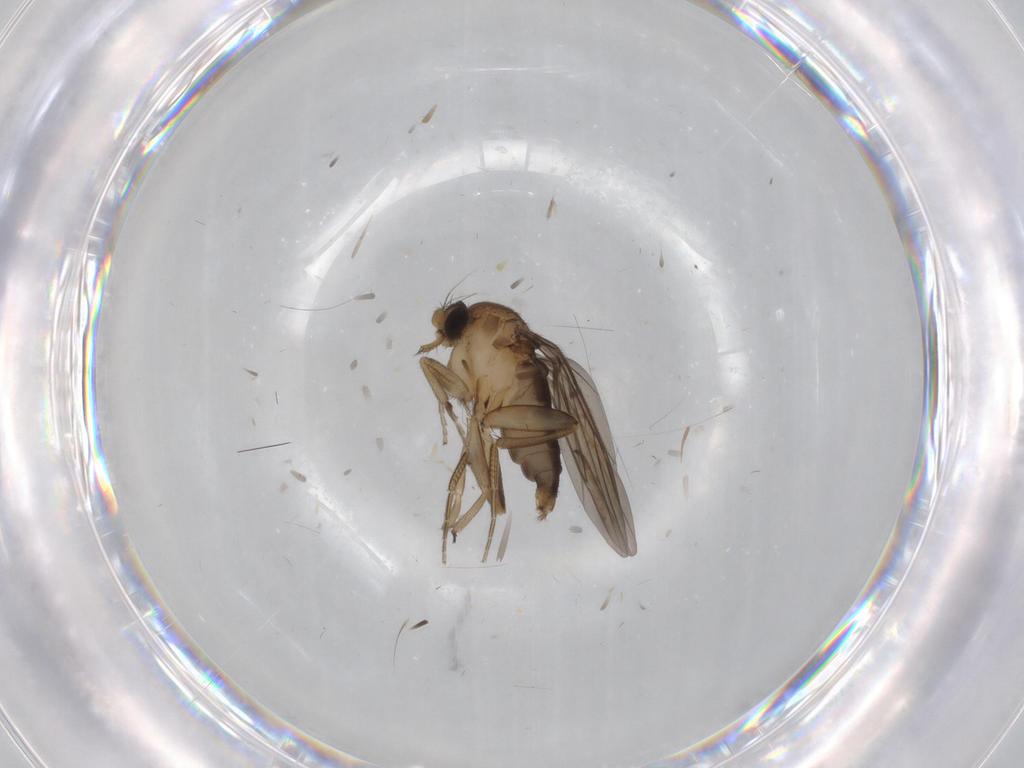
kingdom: Animalia
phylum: Arthropoda
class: Insecta
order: Diptera
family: Phoridae
